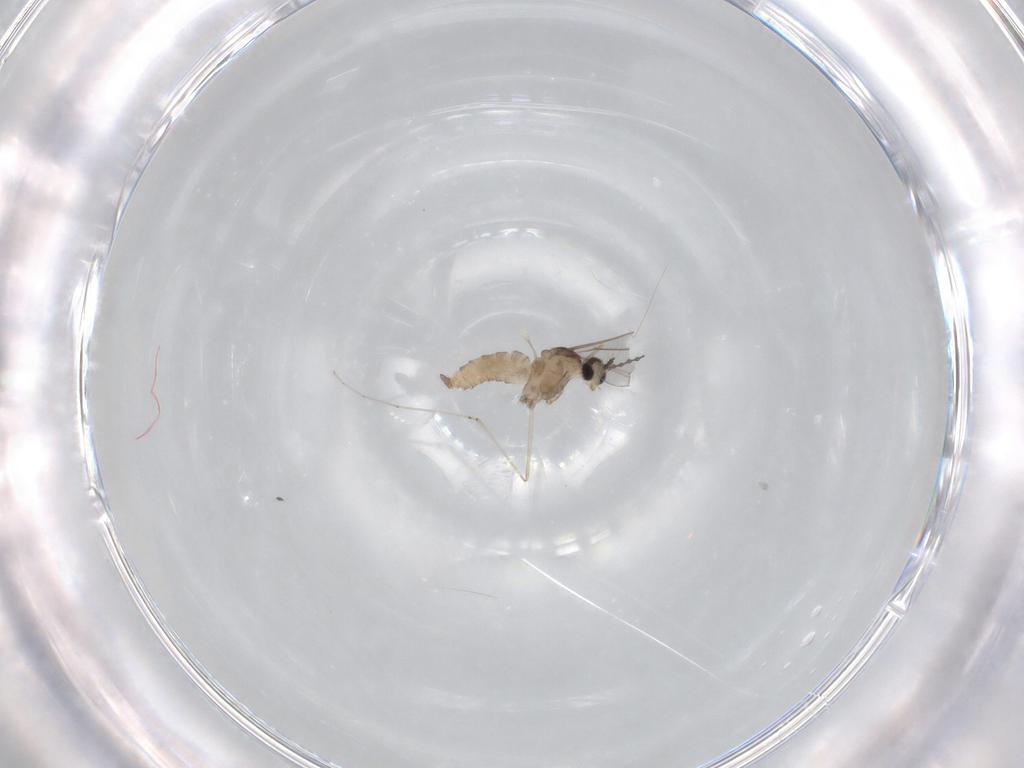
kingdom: Animalia
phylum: Arthropoda
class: Insecta
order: Diptera
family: Cecidomyiidae
